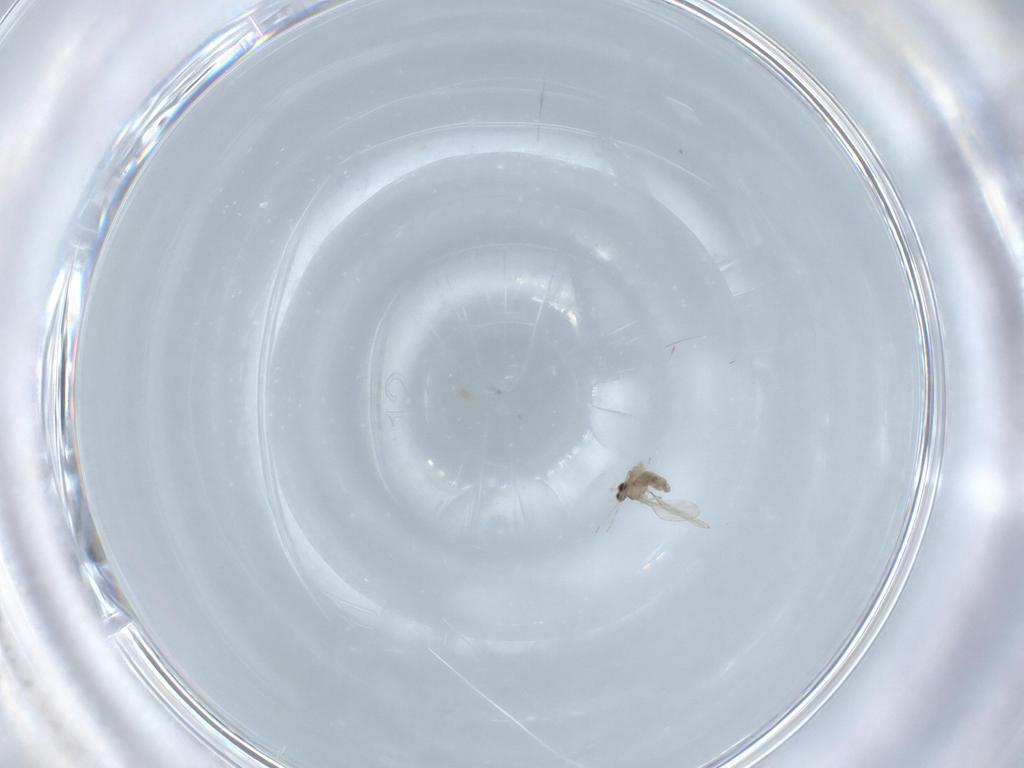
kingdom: Animalia
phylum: Arthropoda
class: Insecta
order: Diptera
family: Cecidomyiidae
